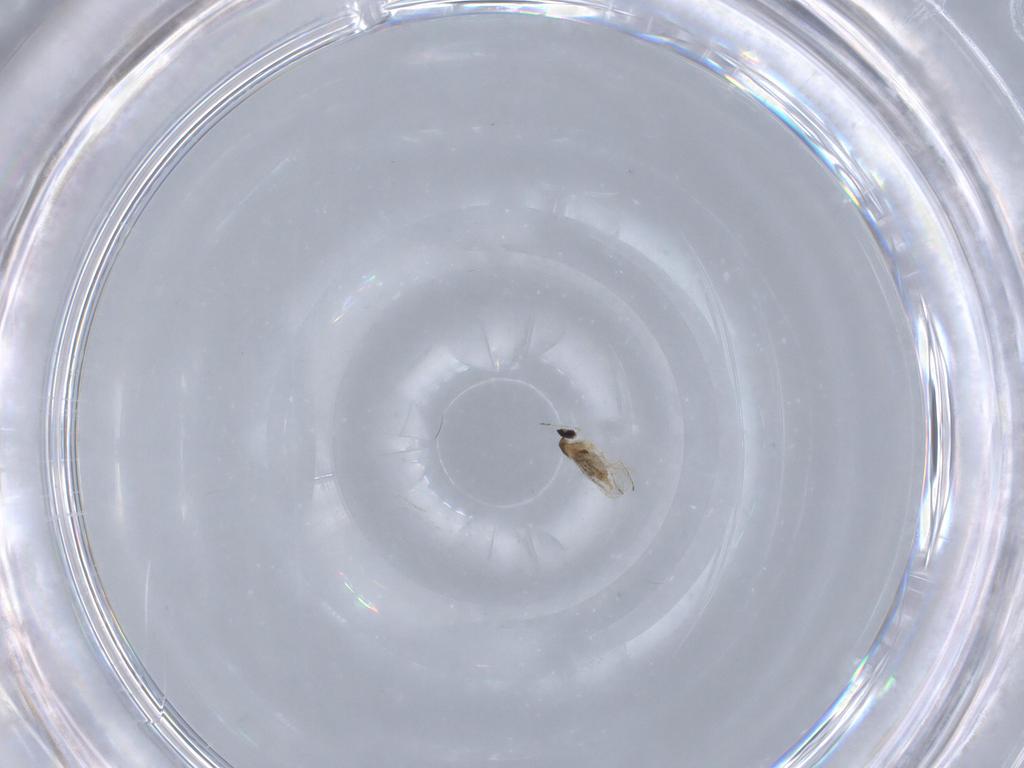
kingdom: Animalia
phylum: Arthropoda
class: Insecta
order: Diptera
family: Cecidomyiidae
